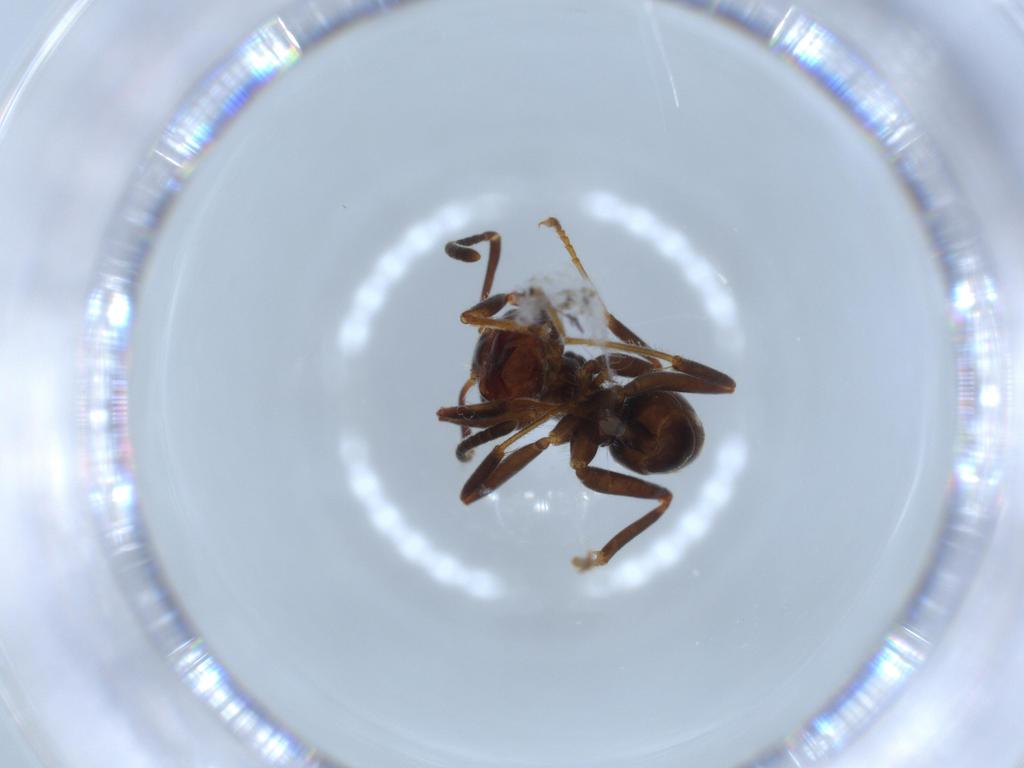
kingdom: Animalia
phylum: Arthropoda
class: Insecta
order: Hymenoptera
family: Formicidae
